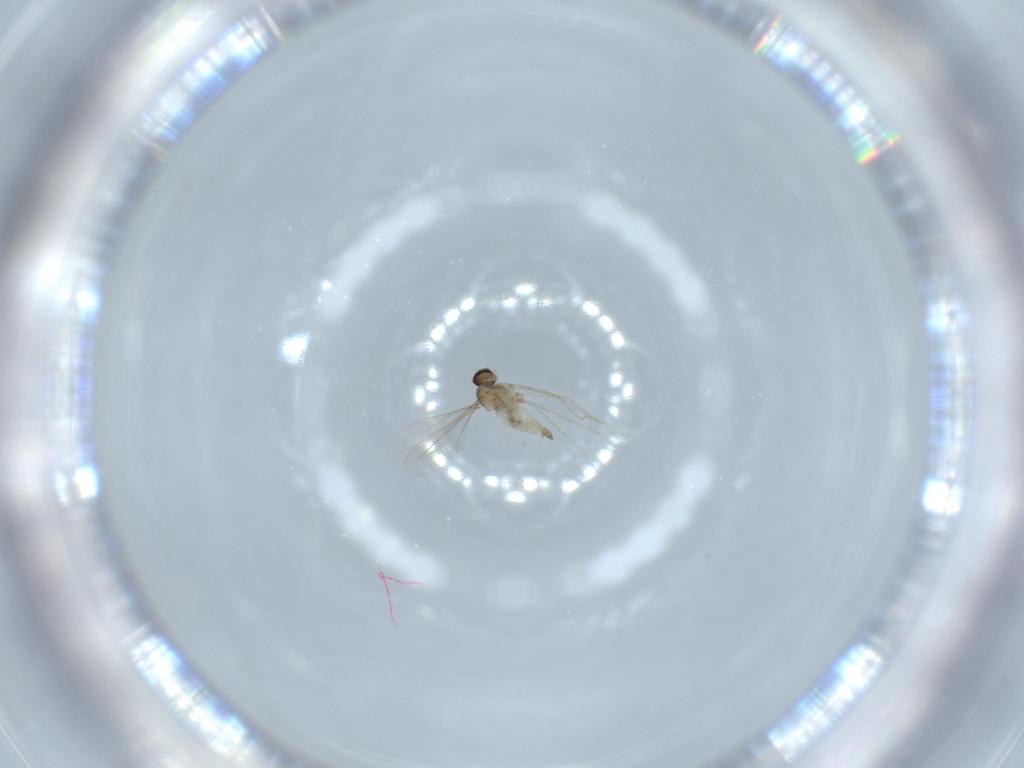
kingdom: Animalia
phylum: Arthropoda
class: Insecta
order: Diptera
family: Cecidomyiidae
